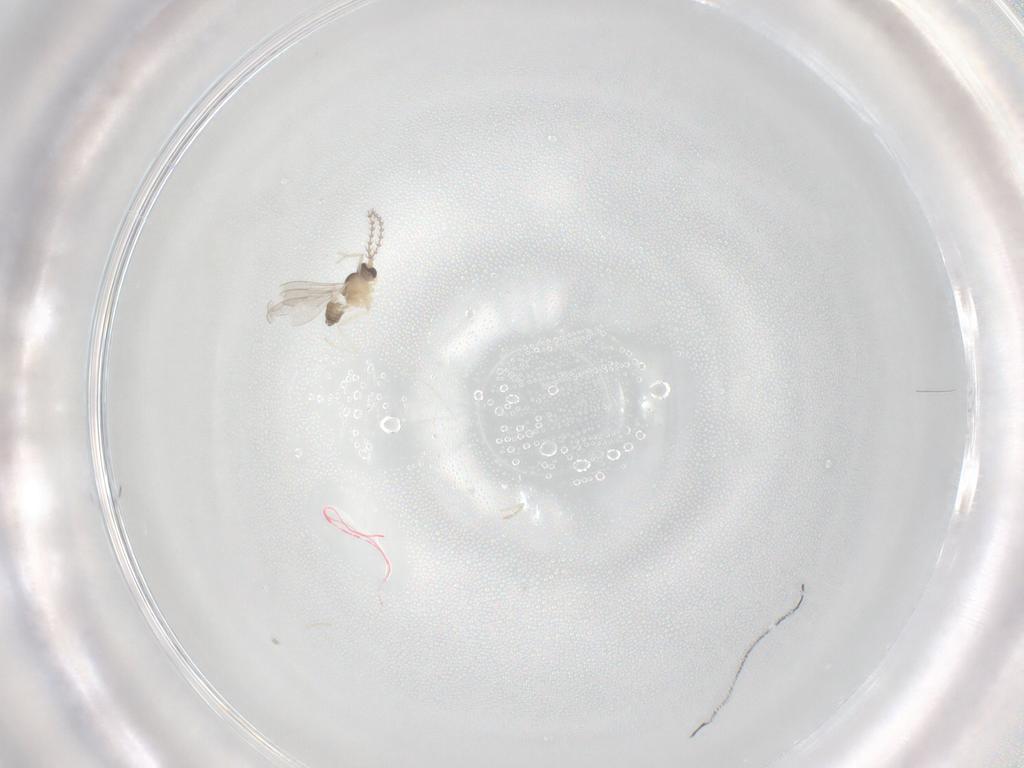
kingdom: Animalia
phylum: Arthropoda
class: Insecta
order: Diptera
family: Cecidomyiidae
